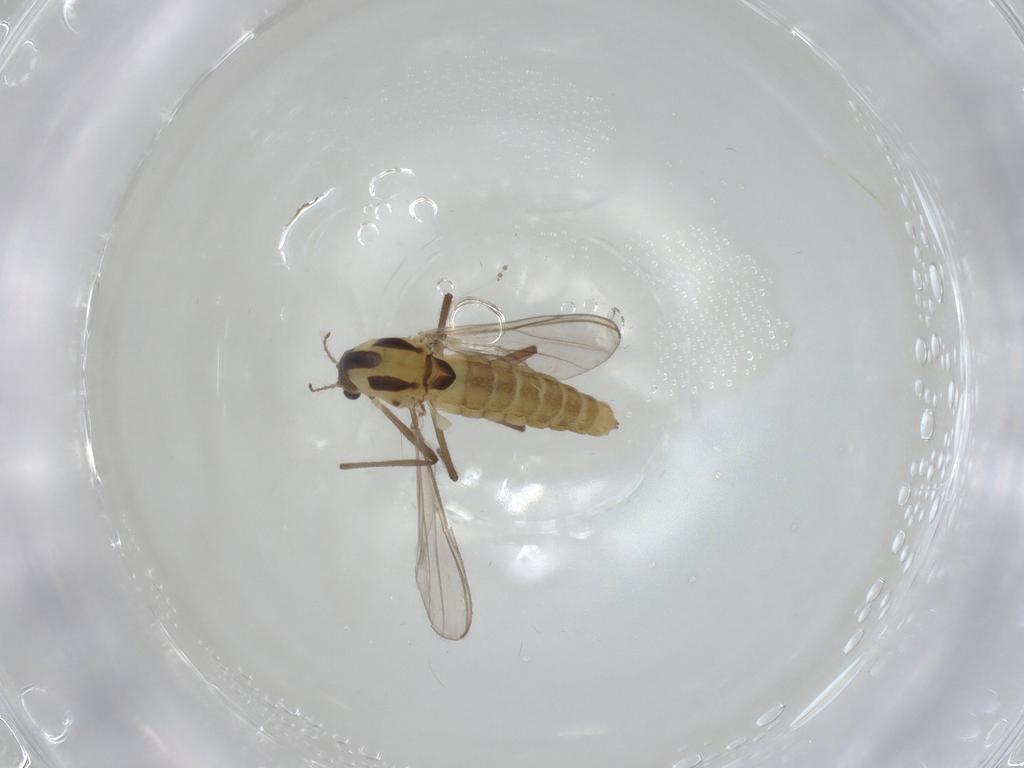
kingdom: Animalia
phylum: Arthropoda
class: Insecta
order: Diptera
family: Chironomidae
